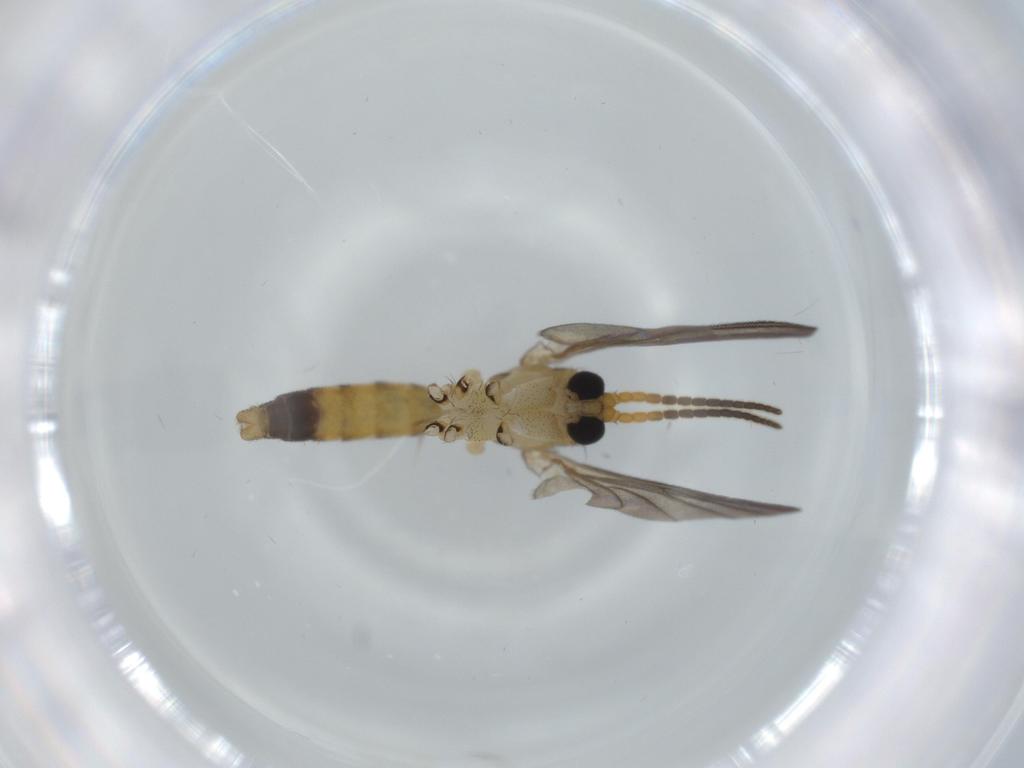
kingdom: Animalia
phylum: Arthropoda
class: Insecta
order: Diptera
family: Sciaridae
